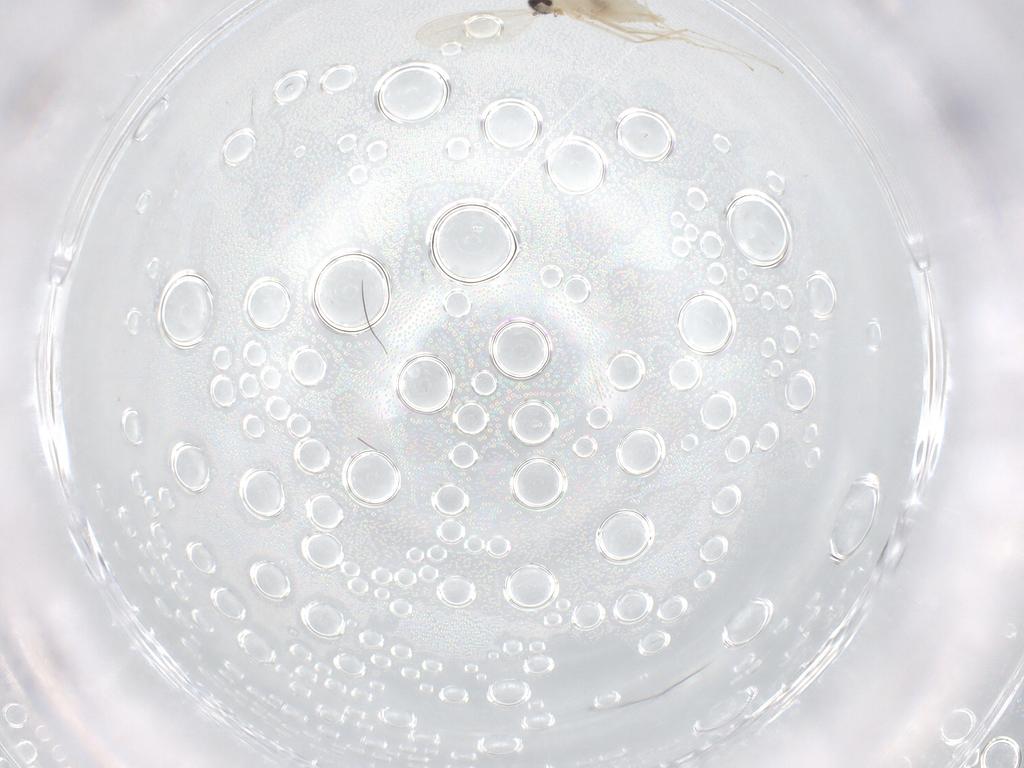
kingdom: Animalia
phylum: Arthropoda
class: Insecta
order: Diptera
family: Cecidomyiidae
